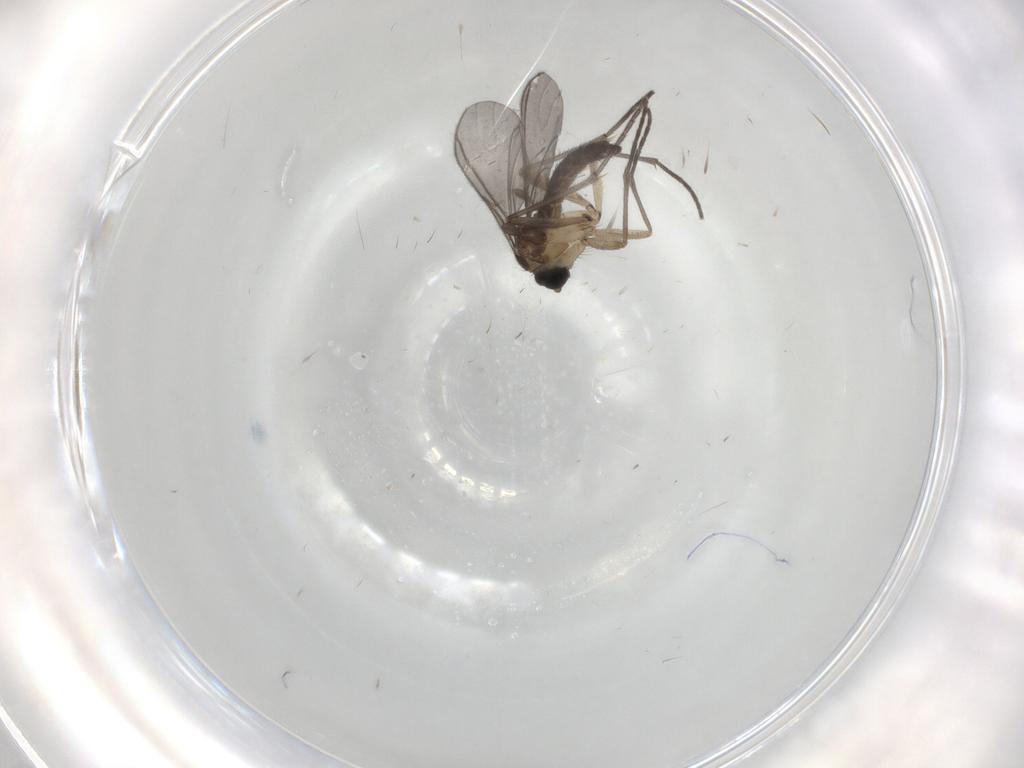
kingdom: Animalia
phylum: Arthropoda
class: Insecta
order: Diptera
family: Sciaridae
